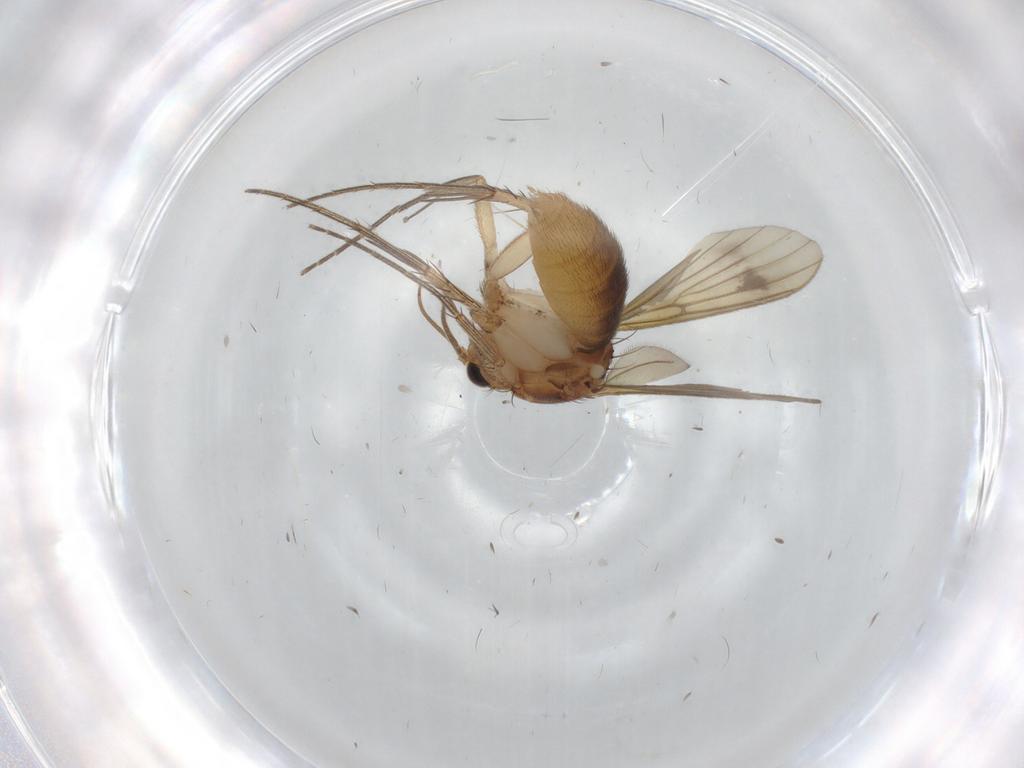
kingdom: Animalia
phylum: Arthropoda
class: Insecta
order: Diptera
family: Mycetophilidae
